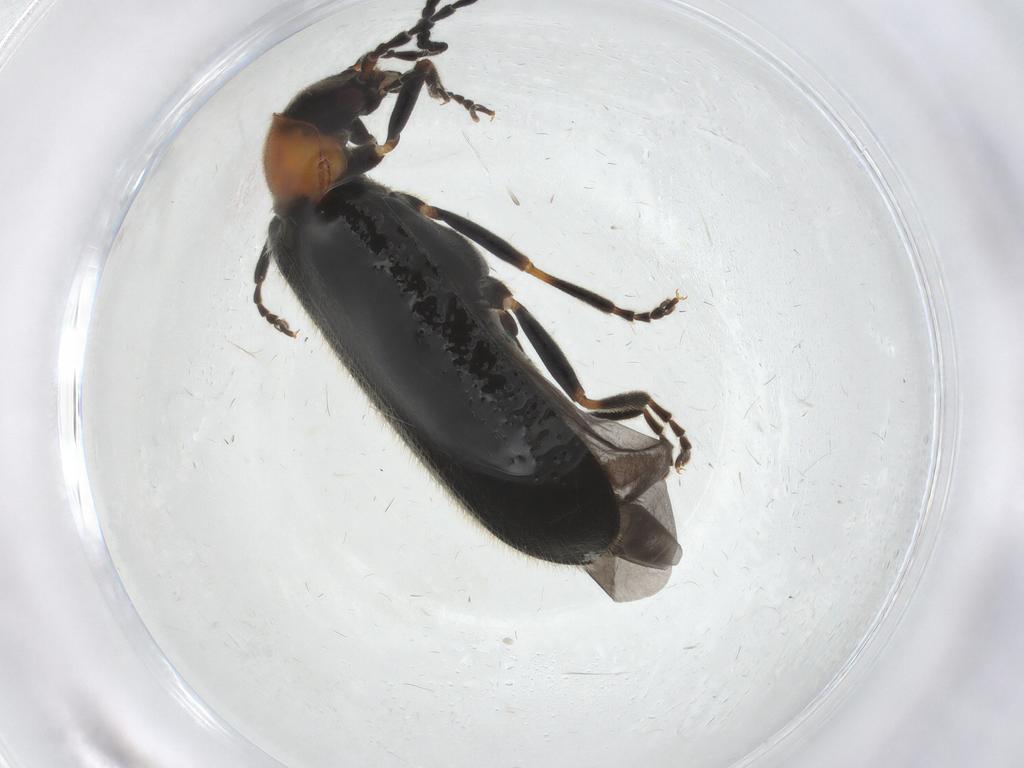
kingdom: Animalia
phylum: Arthropoda
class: Insecta
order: Coleoptera
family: Cantharidae
